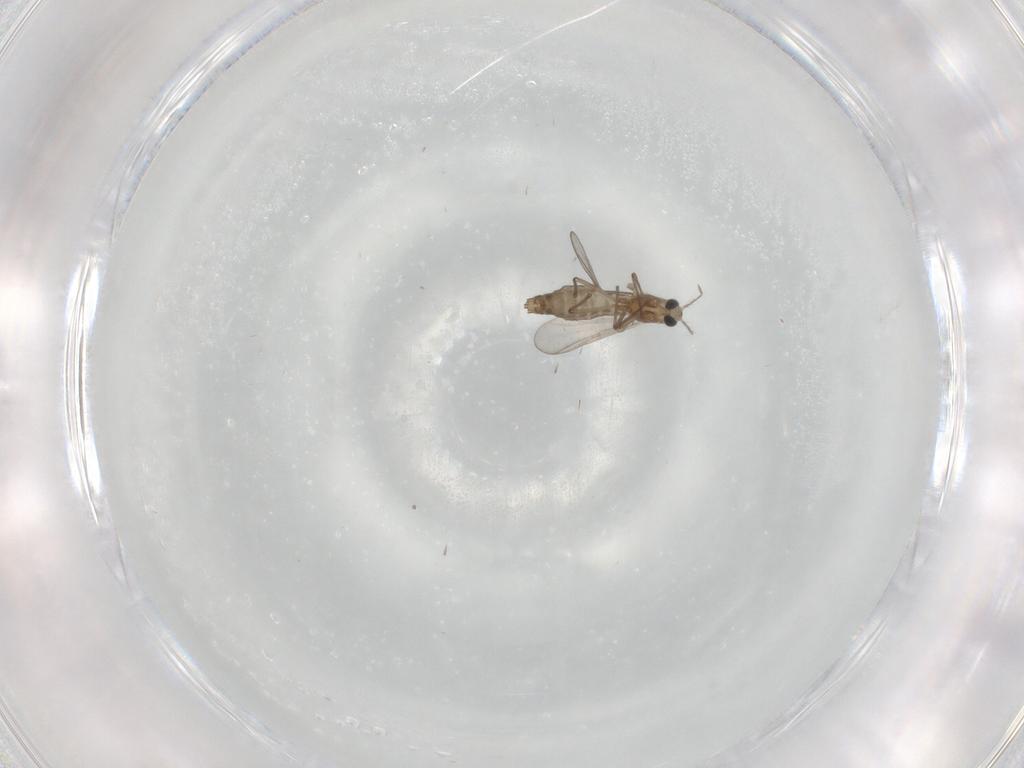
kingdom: Animalia
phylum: Arthropoda
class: Insecta
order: Diptera
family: Chironomidae
